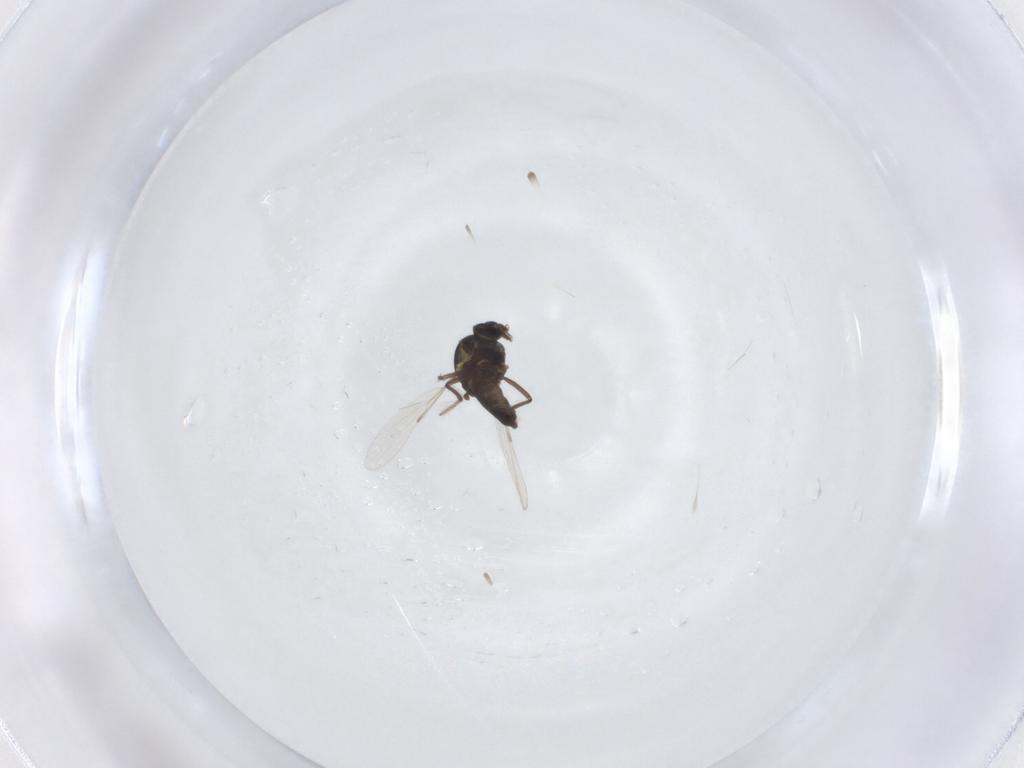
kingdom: Animalia
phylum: Arthropoda
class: Insecta
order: Diptera
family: Ceratopogonidae
